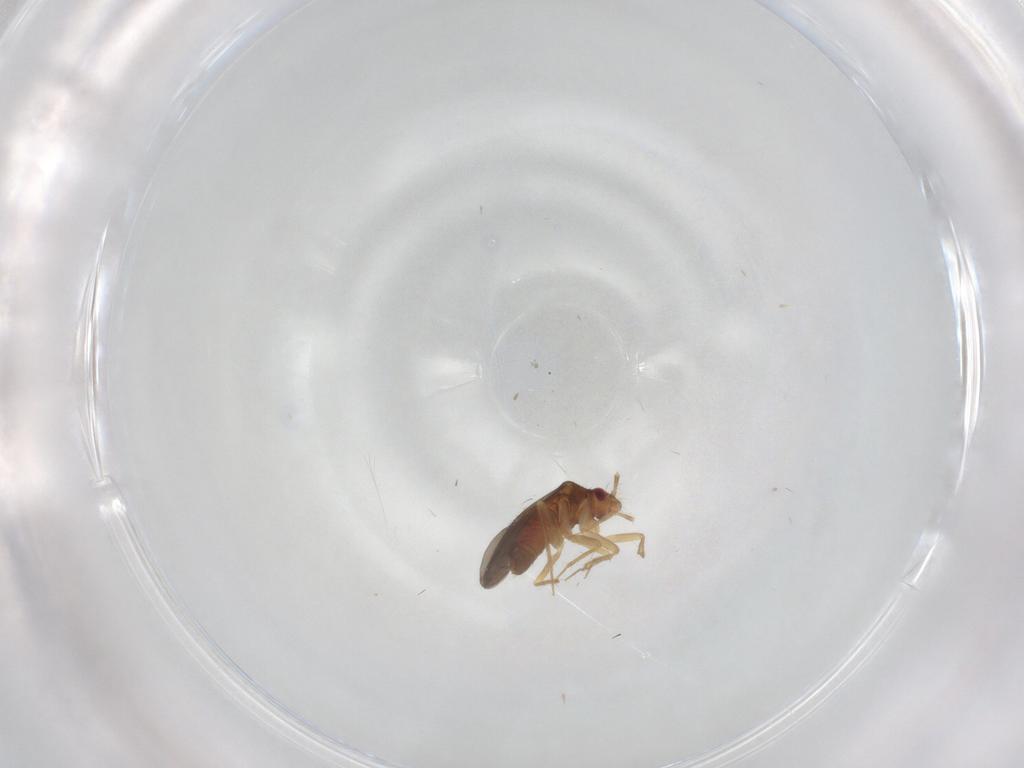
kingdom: Animalia
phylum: Arthropoda
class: Insecta
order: Hemiptera
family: Ceratocombidae
